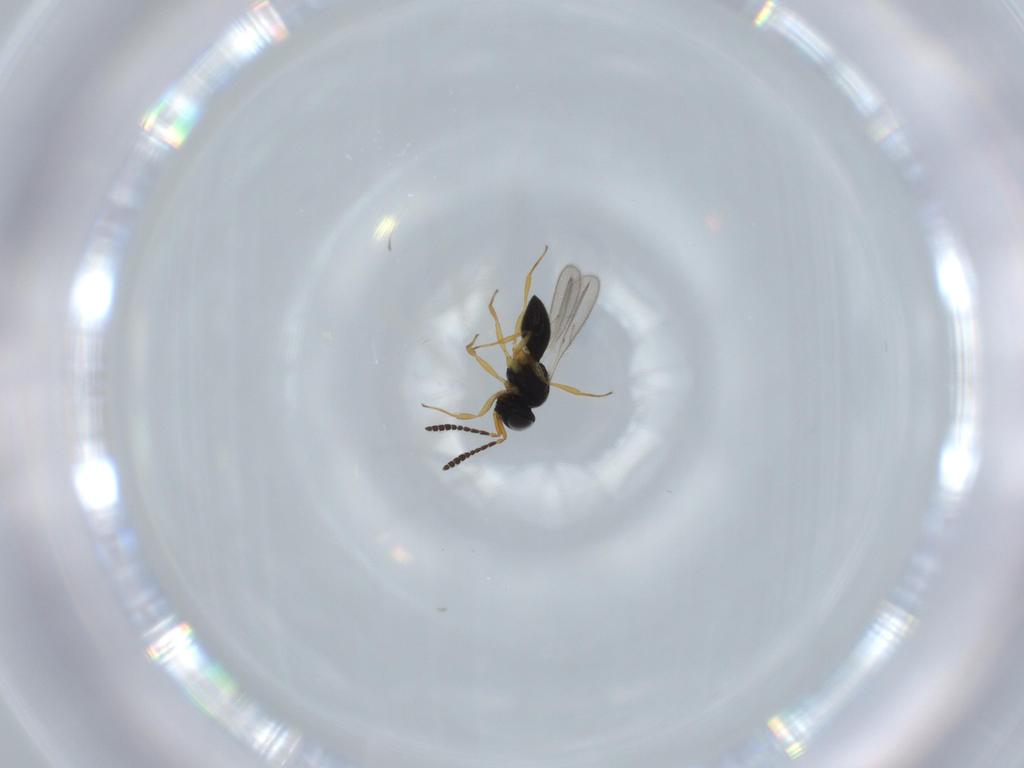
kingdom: Animalia
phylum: Arthropoda
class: Insecta
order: Hymenoptera
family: Scelionidae
